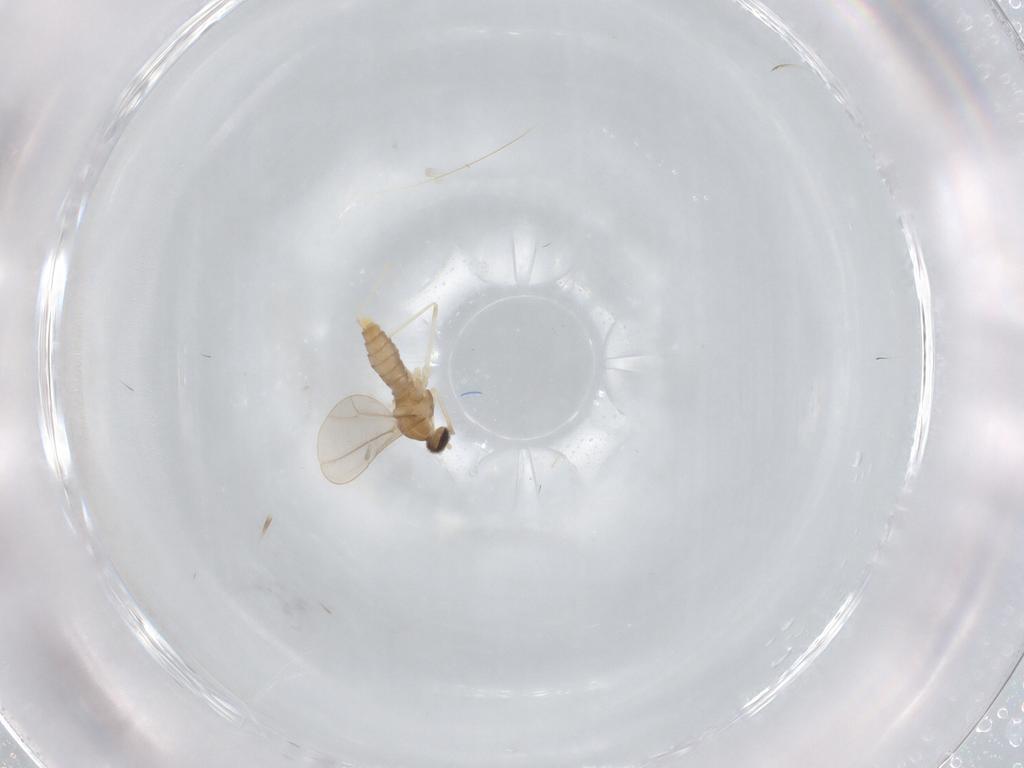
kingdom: Animalia
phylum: Arthropoda
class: Insecta
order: Diptera
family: Cecidomyiidae
